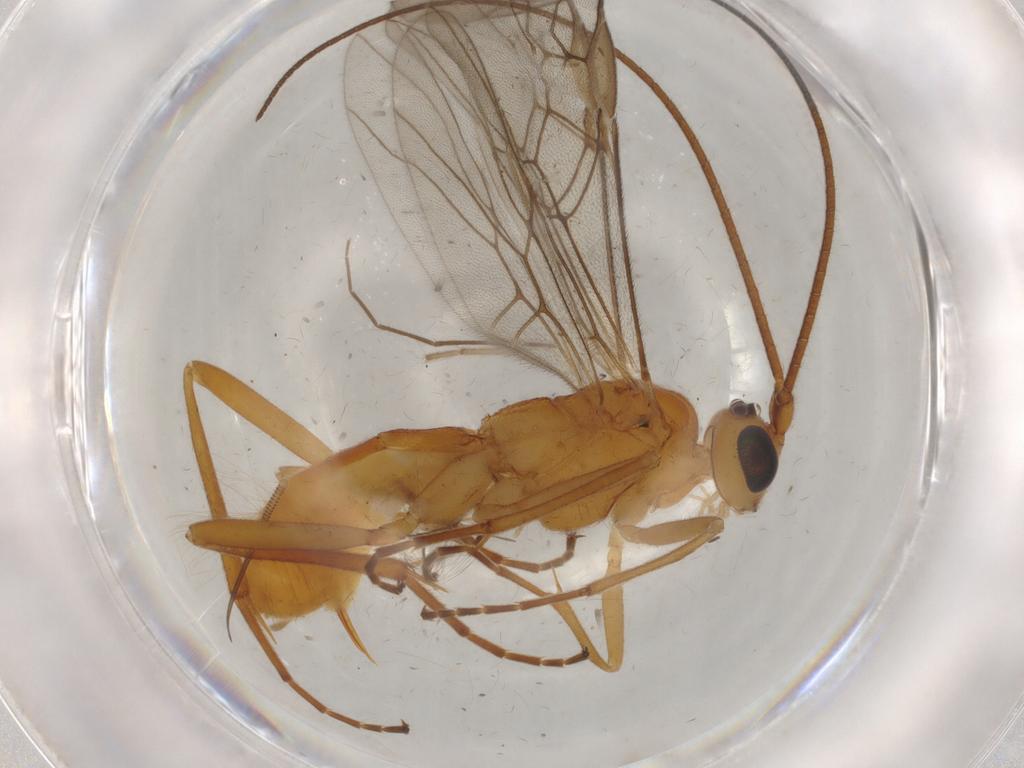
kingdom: Animalia
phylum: Arthropoda
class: Insecta
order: Hymenoptera
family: Braconidae
